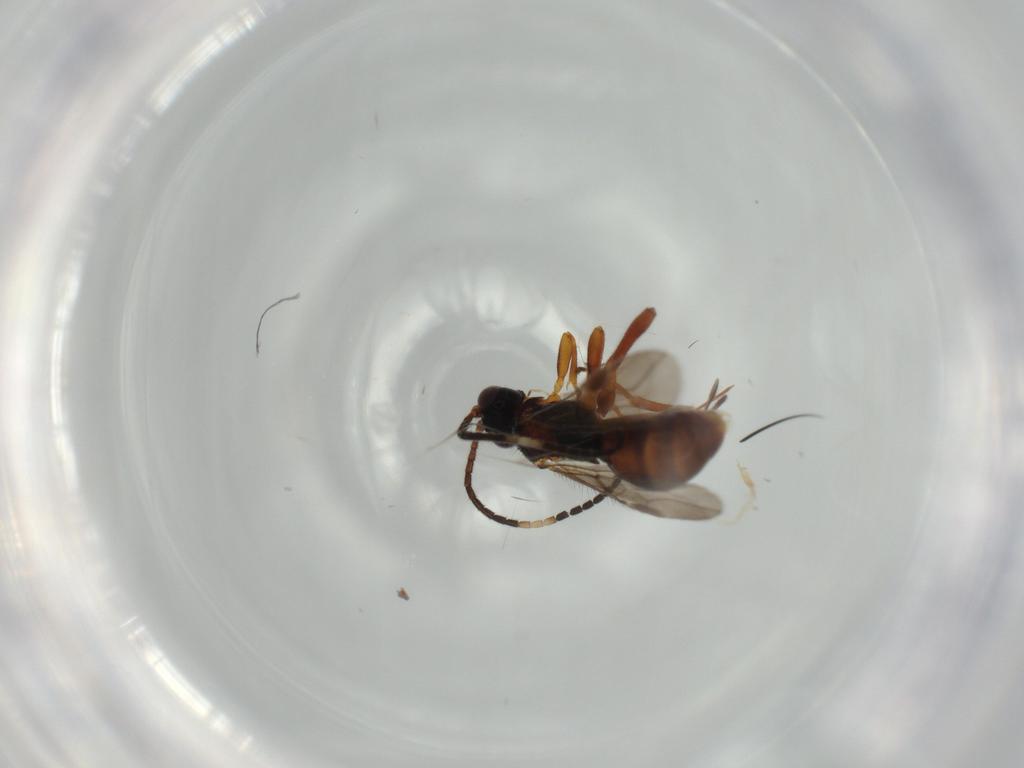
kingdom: Animalia
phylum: Arthropoda
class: Insecta
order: Hymenoptera
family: Braconidae
